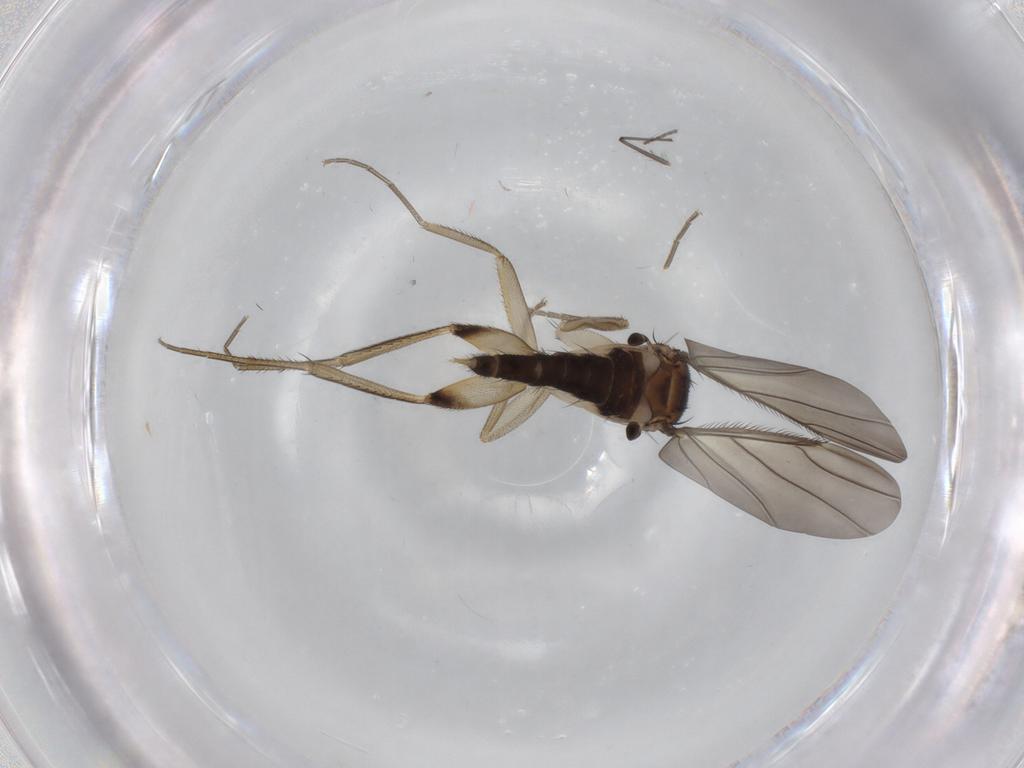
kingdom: Animalia
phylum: Arthropoda
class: Insecta
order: Diptera
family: Phoridae
